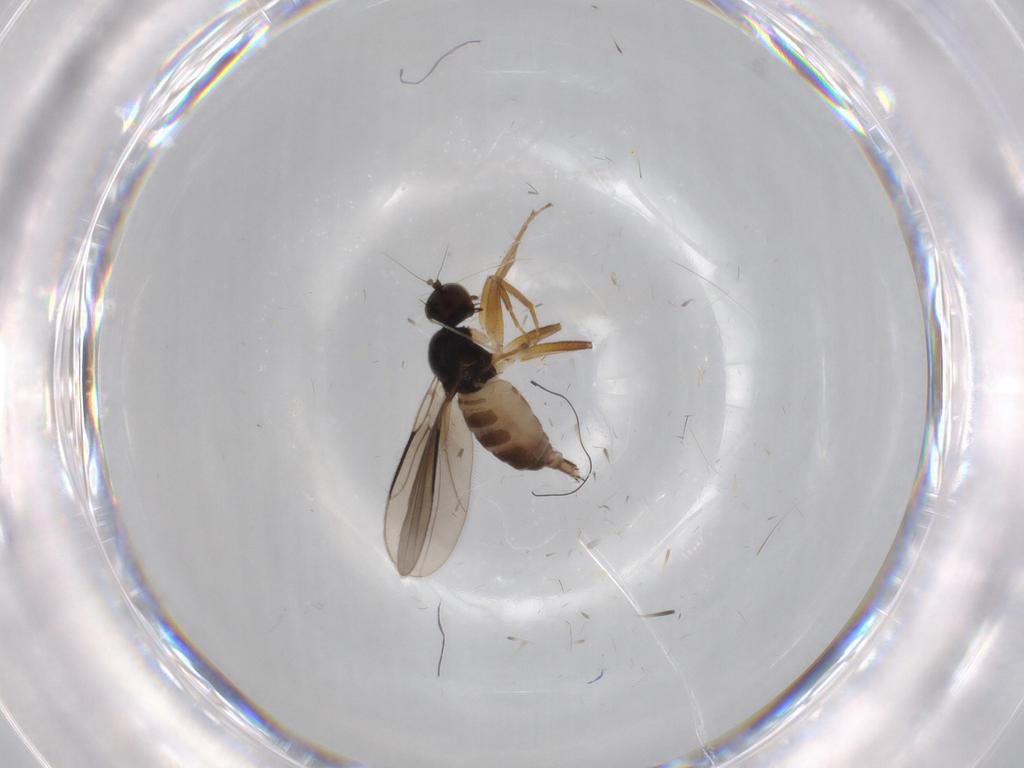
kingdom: Animalia
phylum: Arthropoda
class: Insecta
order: Diptera
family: Hybotidae
